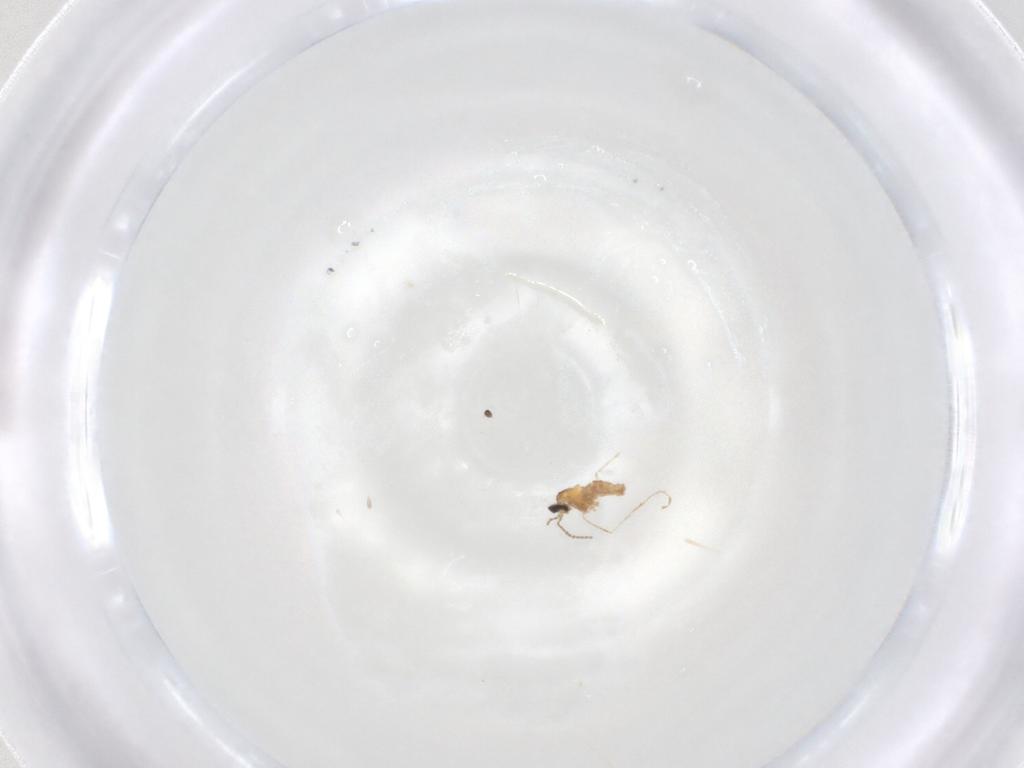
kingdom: Animalia
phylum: Arthropoda
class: Insecta
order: Diptera
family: Cecidomyiidae
